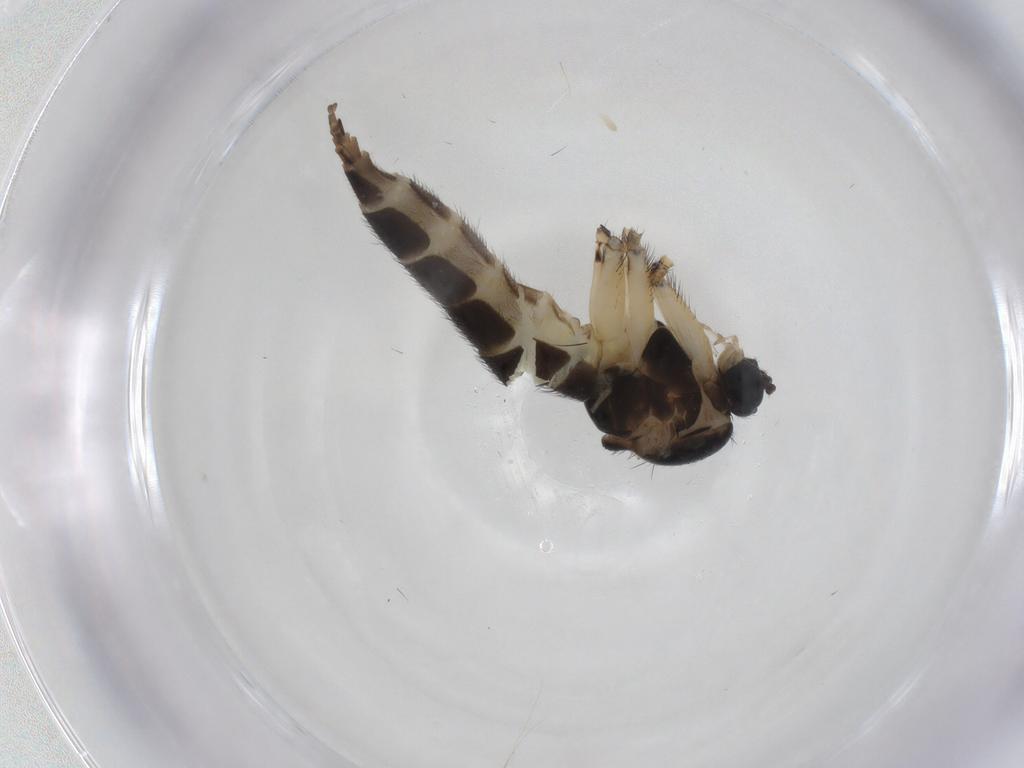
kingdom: Animalia
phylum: Arthropoda
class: Insecta
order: Diptera
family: Sciaridae
